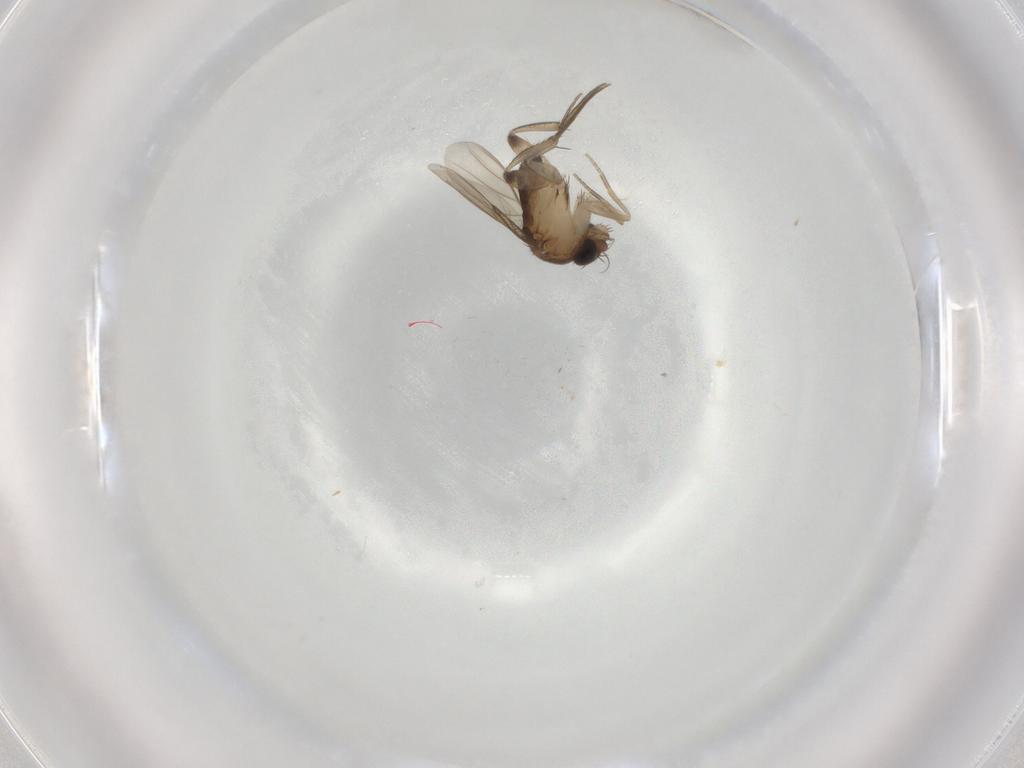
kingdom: Animalia
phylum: Arthropoda
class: Insecta
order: Diptera
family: Phoridae
